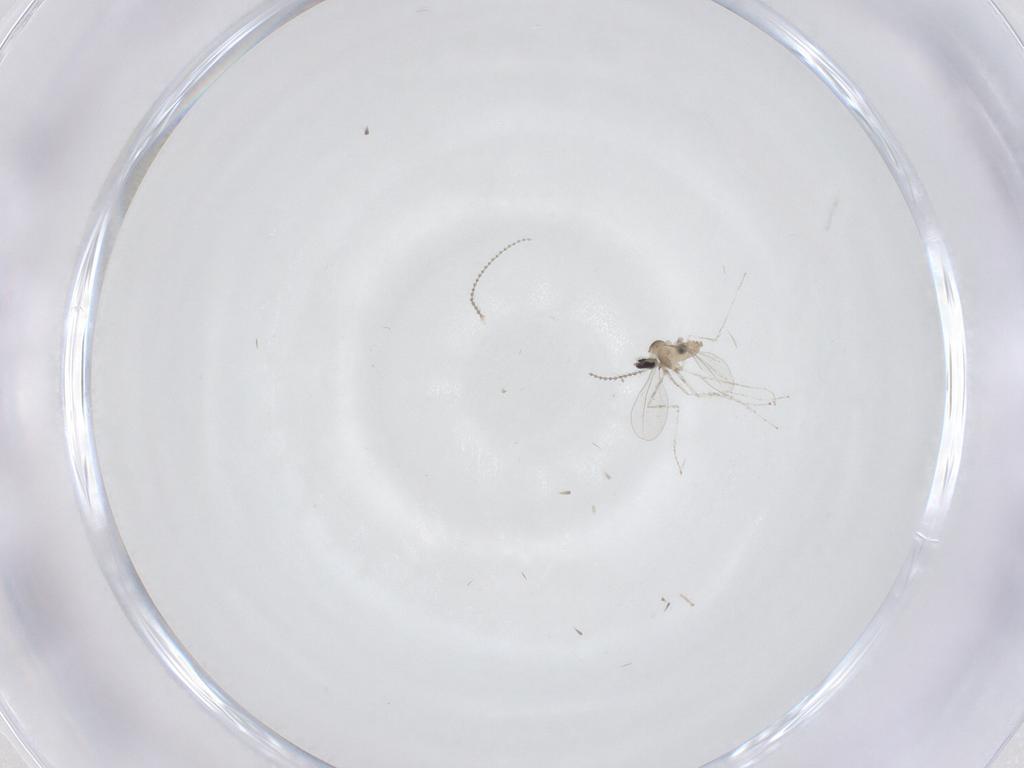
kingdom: Animalia
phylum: Arthropoda
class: Insecta
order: Diptera
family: Cecidomyiidae
